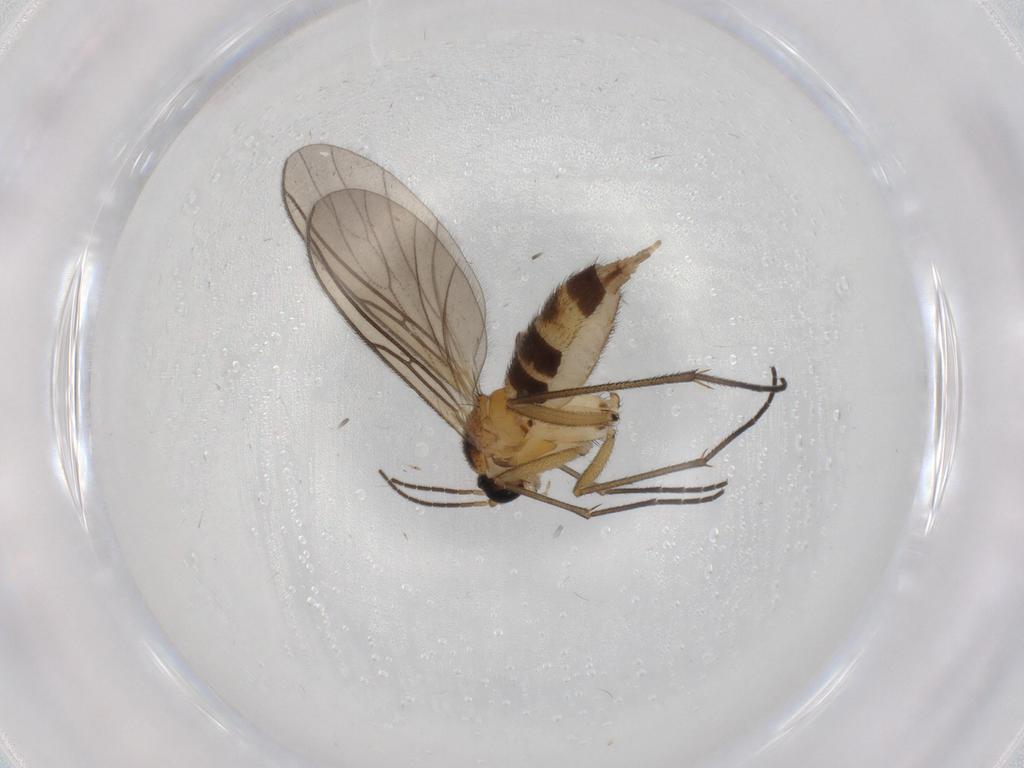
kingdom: Animalia
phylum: Arthropoda
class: Insecta
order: Diptera
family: Sciaridae
